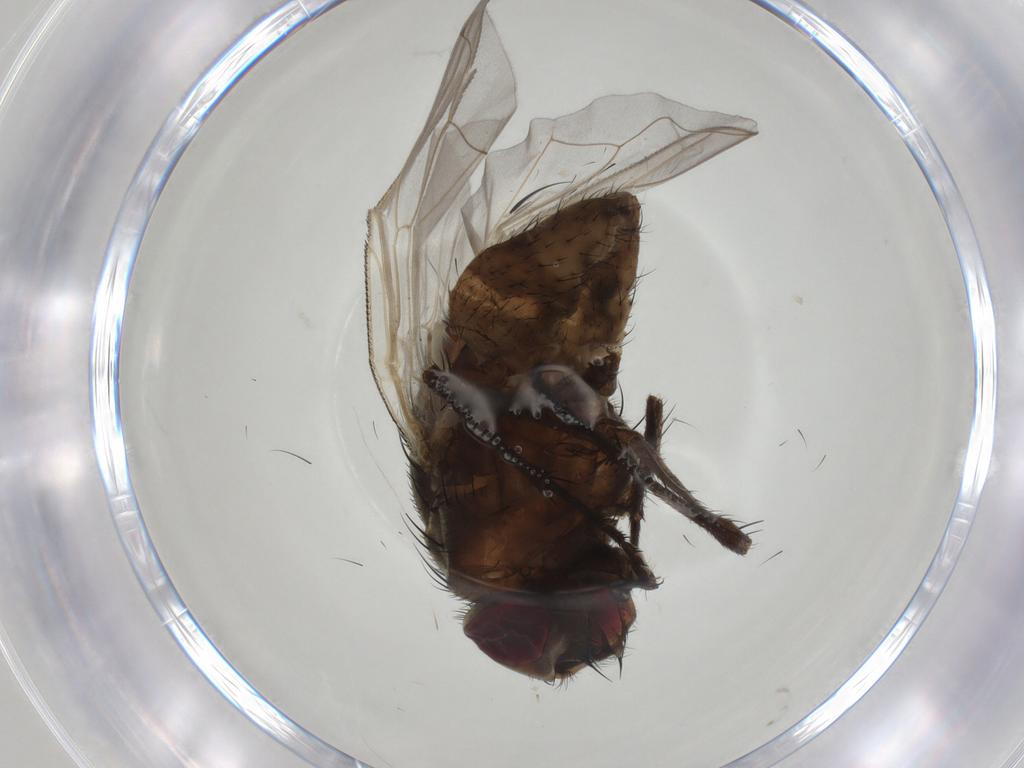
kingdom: Animalia
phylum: Arthropoda
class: Insecta
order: Diptera
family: Muscidae
